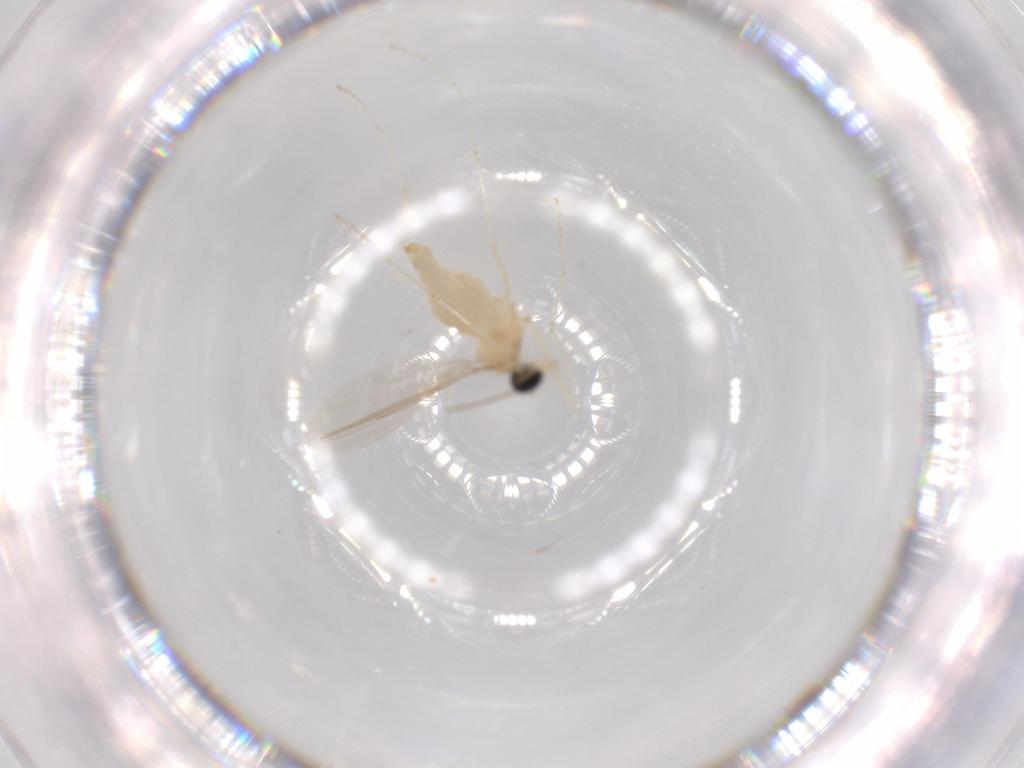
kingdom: Animalia
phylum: Arthropoda
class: Insecta
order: Diptera
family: Cecidomyiidae
